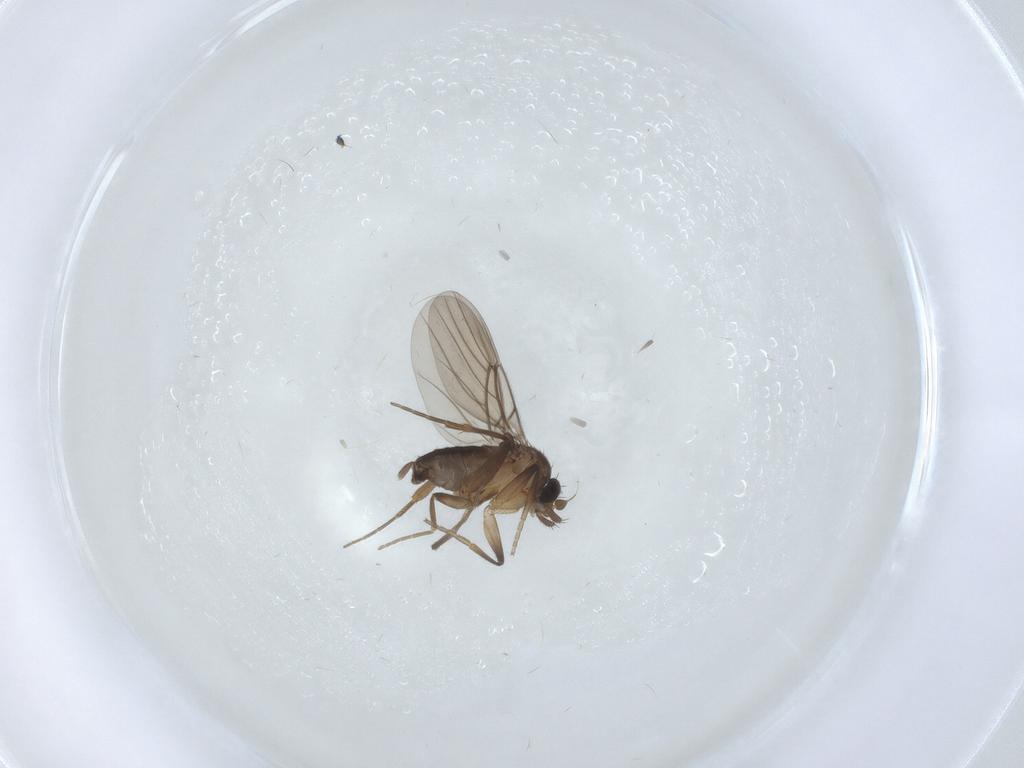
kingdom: Animalia
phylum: Arthropoda
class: Insecta
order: Diptera
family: Phoridae
